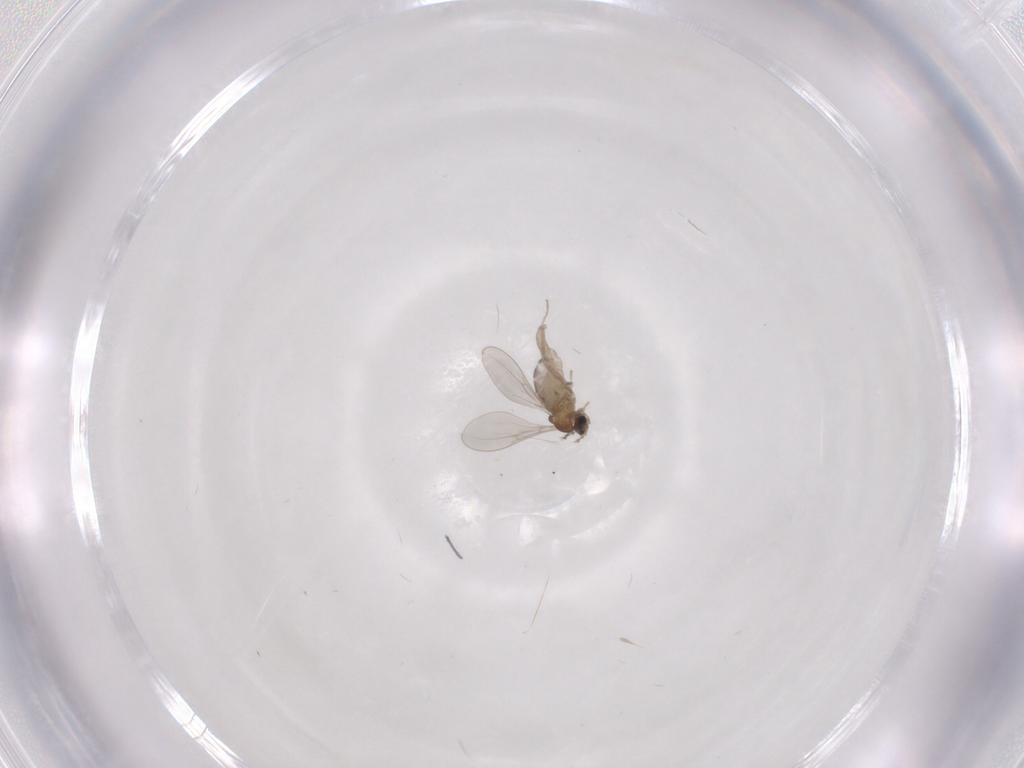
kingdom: Animalia
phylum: Arthropoda
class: Insecta
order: Diptera
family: Cecidomyiidae
